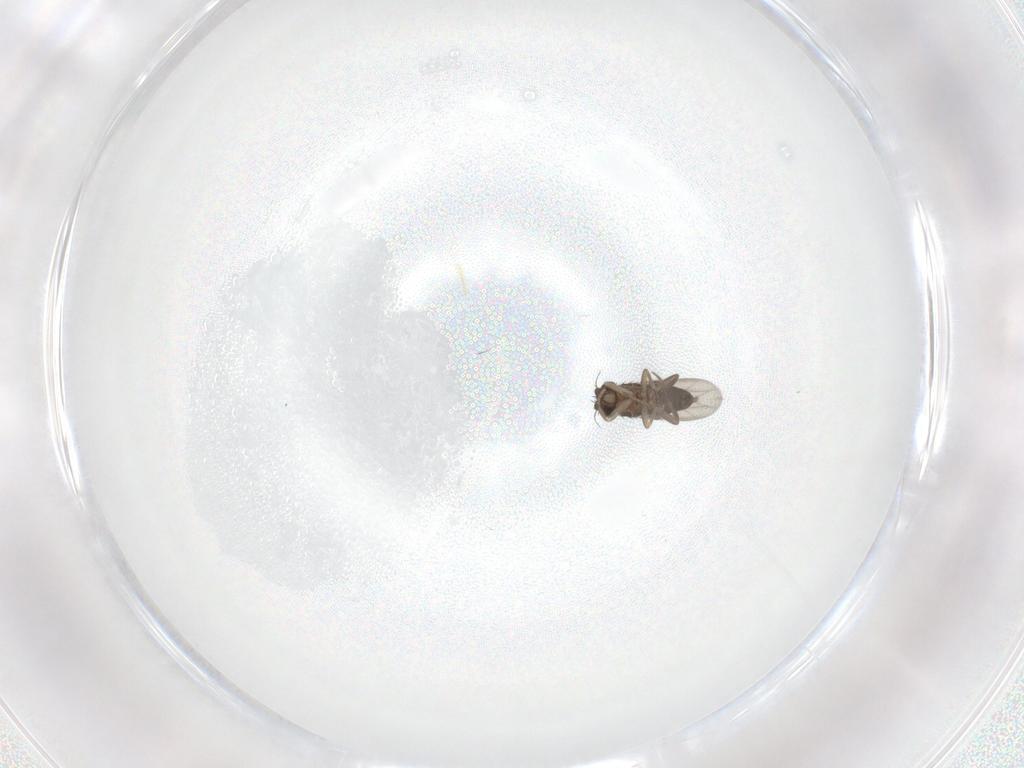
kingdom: Animalia
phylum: Arthropoda
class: Insecta
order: Diptera
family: Phoridae
